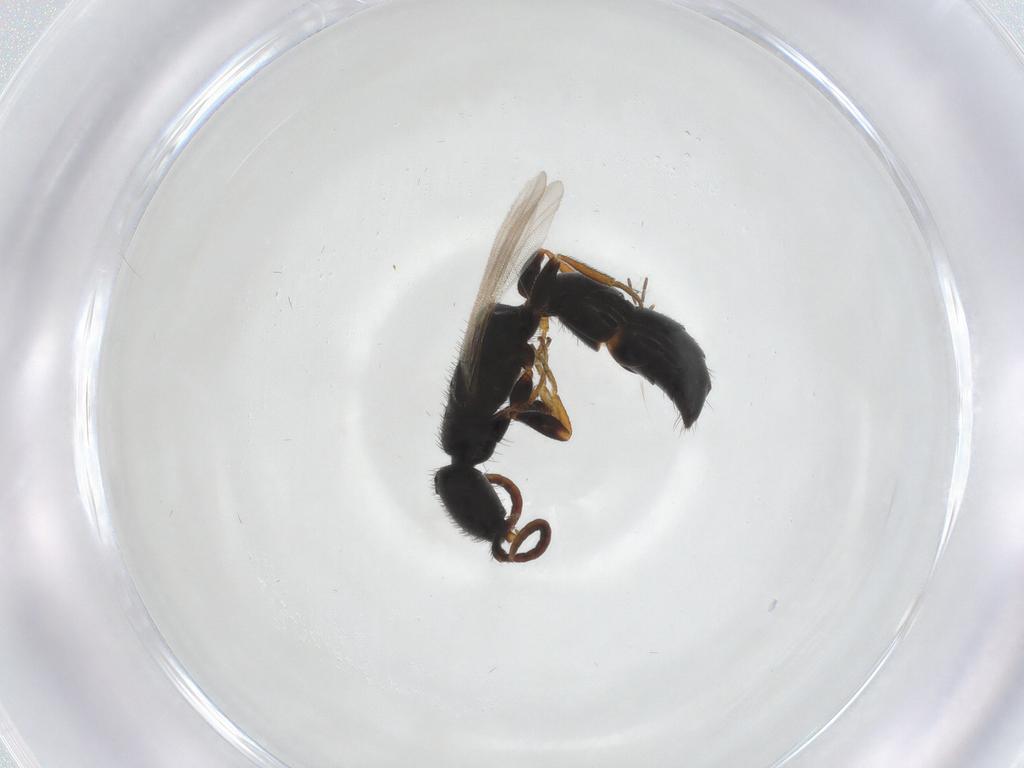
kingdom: Animalia
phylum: Arthropoda
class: Insecta
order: Hymenoptera
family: Bethylidae
